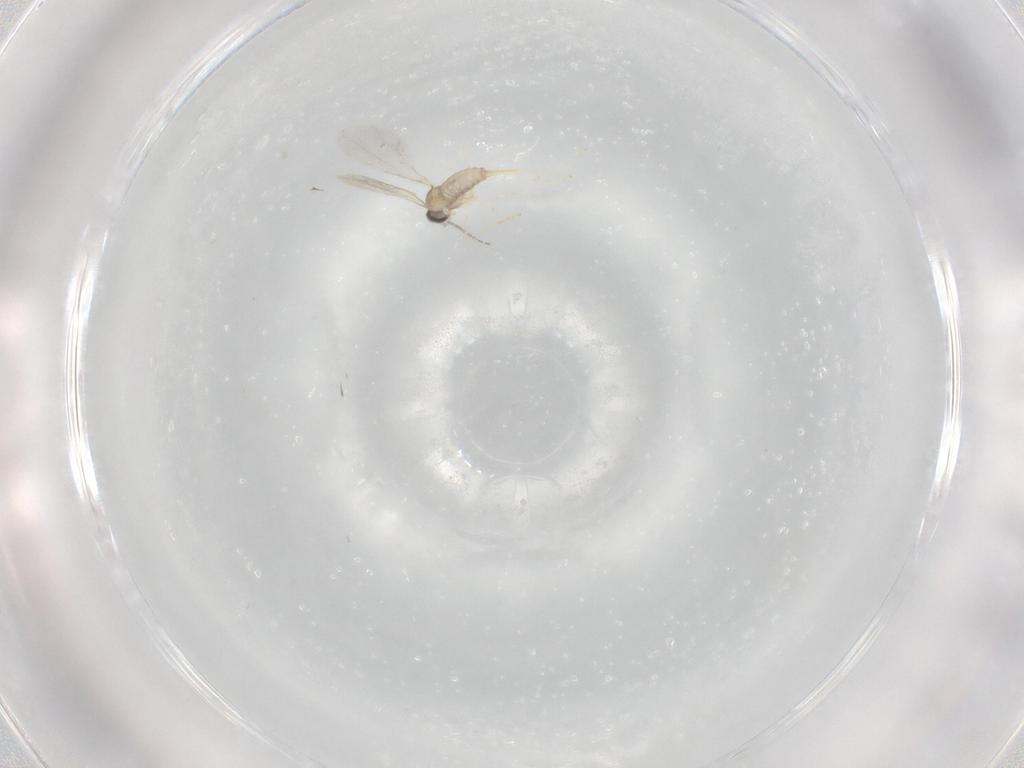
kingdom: Animalia
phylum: Arthropoda
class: Insecta
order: Diptera
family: Cecidomyiidae
